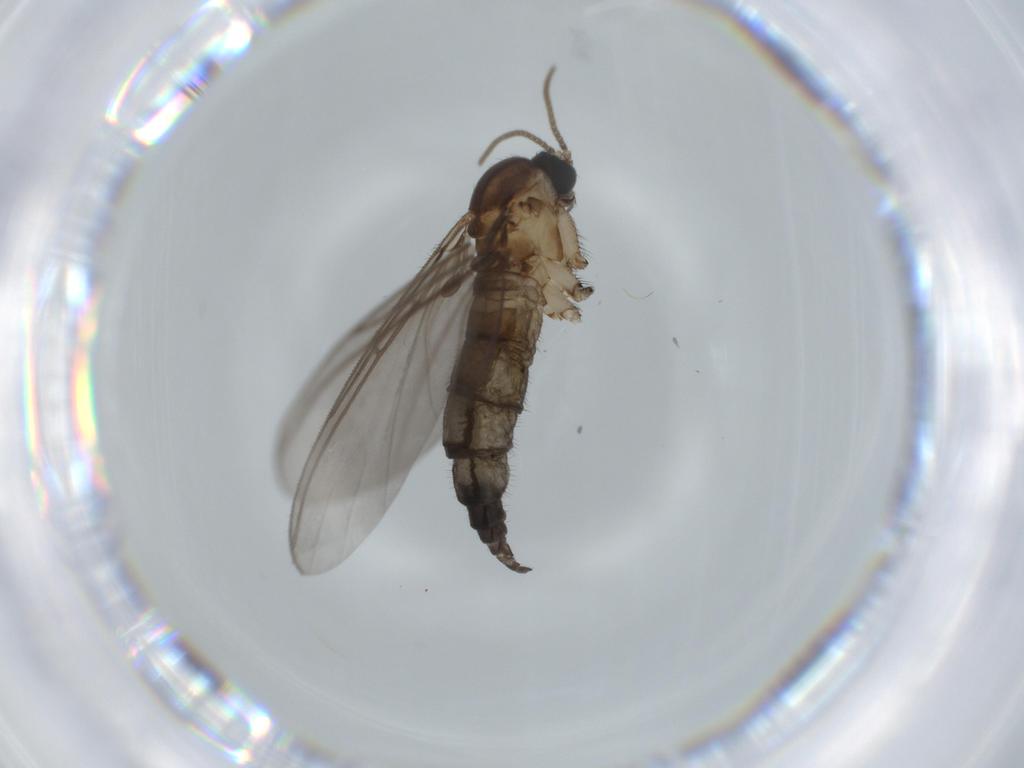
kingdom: Animalia
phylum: Arthropoda
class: Insecta
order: Diptera
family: Sciaridae
